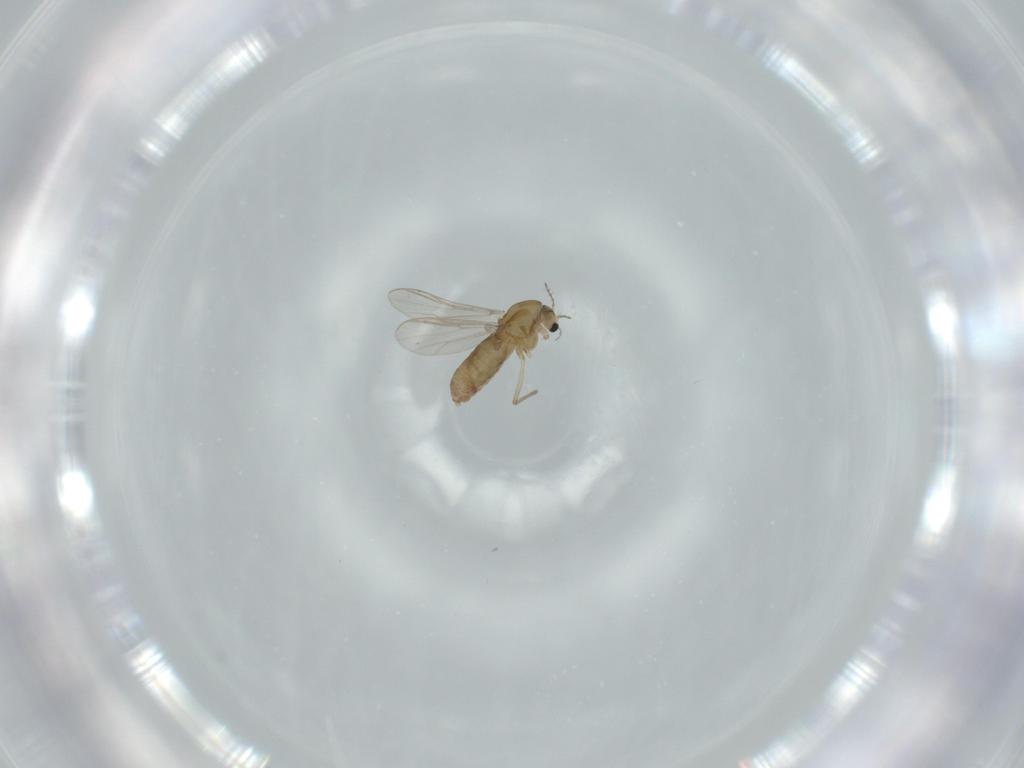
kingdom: Animalia
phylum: Arthropoda
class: Insecta
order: Diptera
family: Chironomidae
